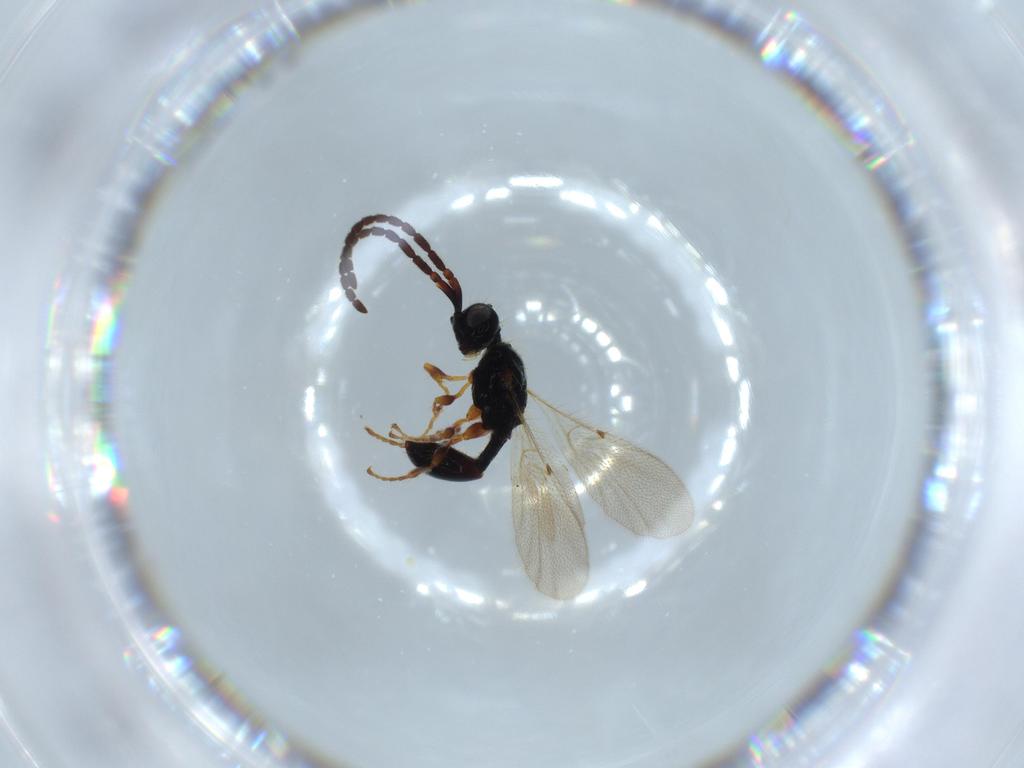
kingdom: Animalia
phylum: Arthropoda
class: Insecta
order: Hymenoptera
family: Diapriidae
